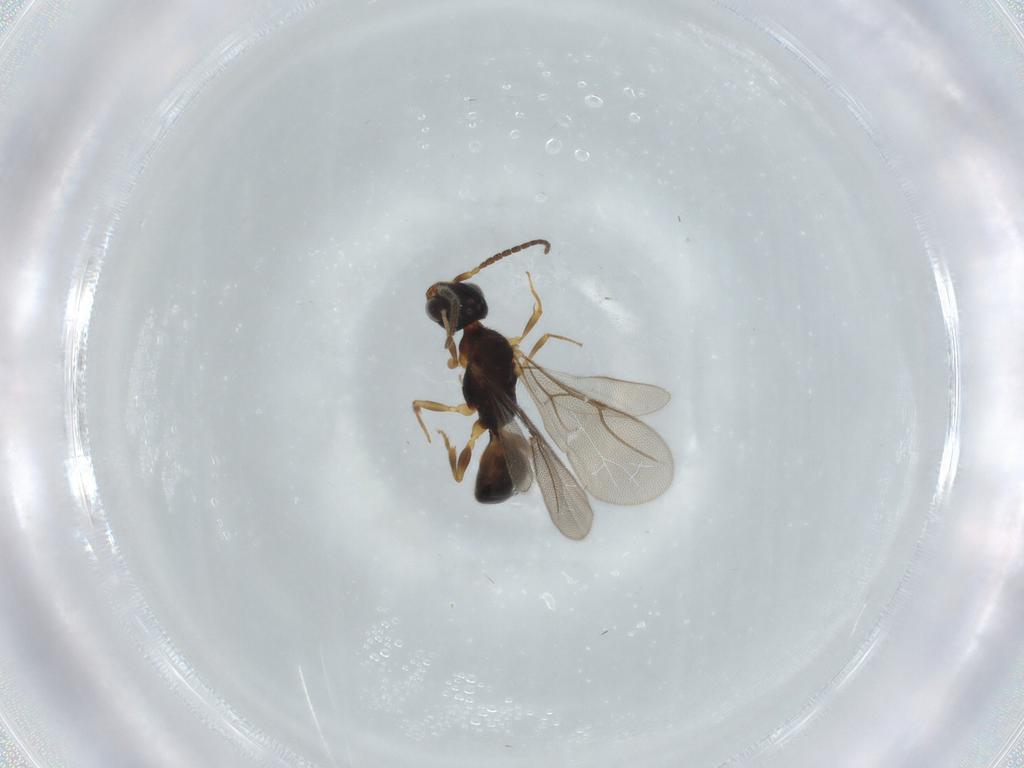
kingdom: Animalia
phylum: Arthropoda
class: Insecta
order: Hymenoptera
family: Bethylidae
